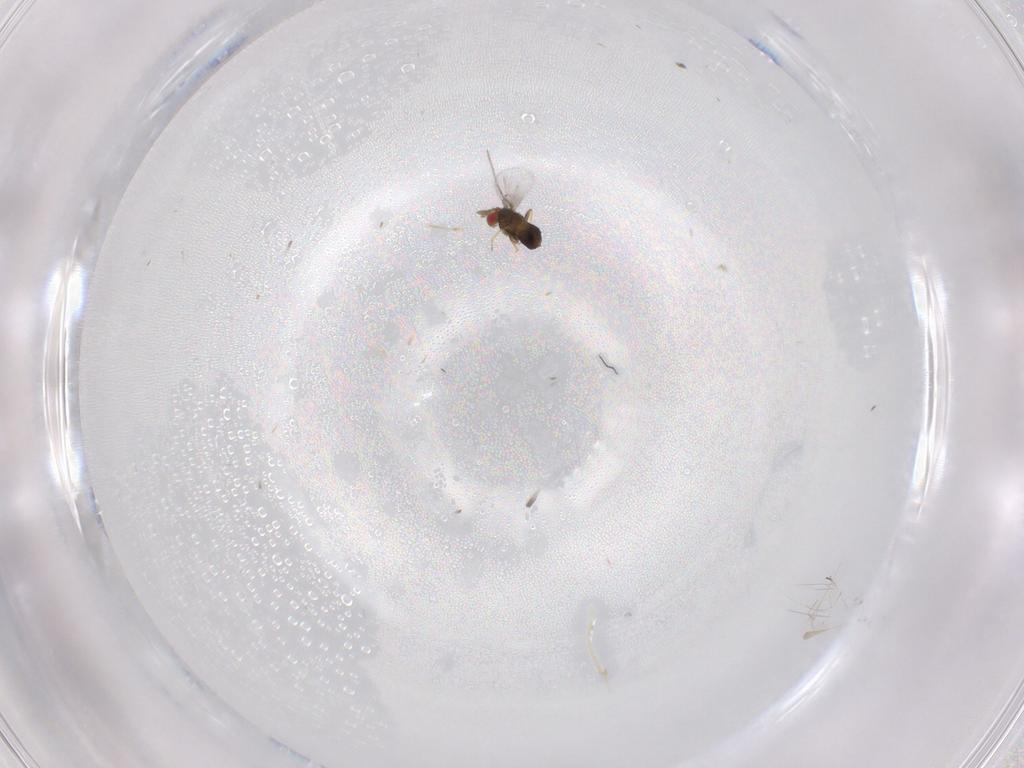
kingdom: Animalia
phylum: Arthropoda
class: Insecta
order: Hymenoptera
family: Trichogrammatidae
